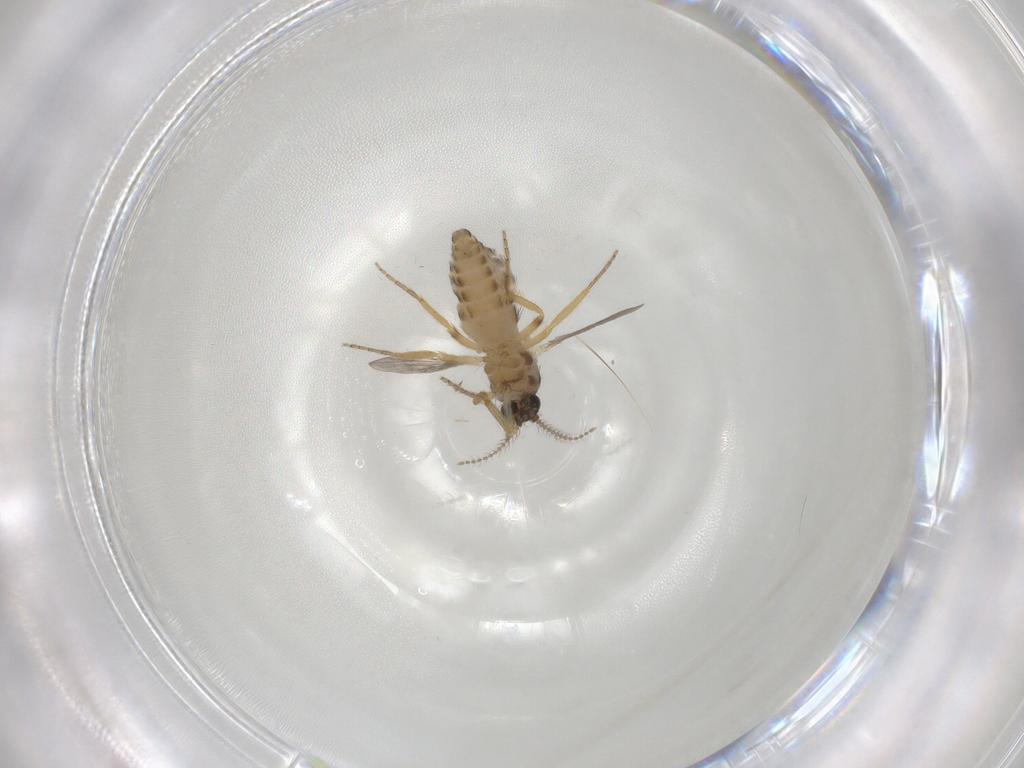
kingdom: Animalia
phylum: Arthropoda
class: Insecta
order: Diptera
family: Ceratopogonidae
